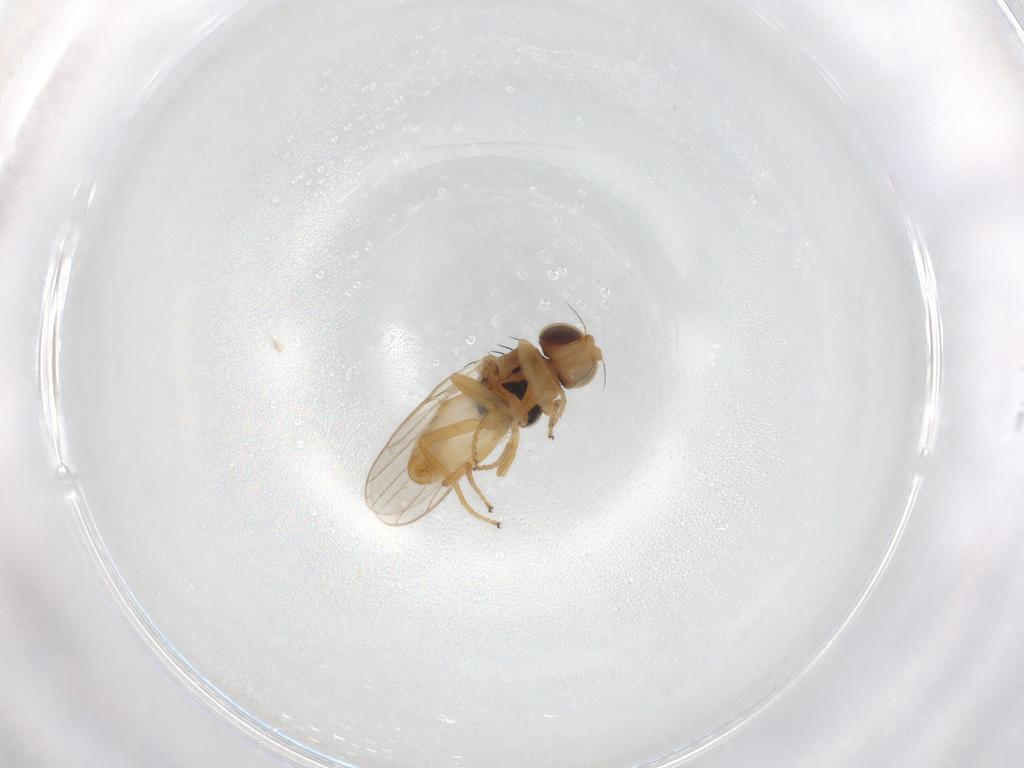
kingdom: Animalia
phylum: Arthropoda
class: Insecta
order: Diptera
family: Chloropidae
